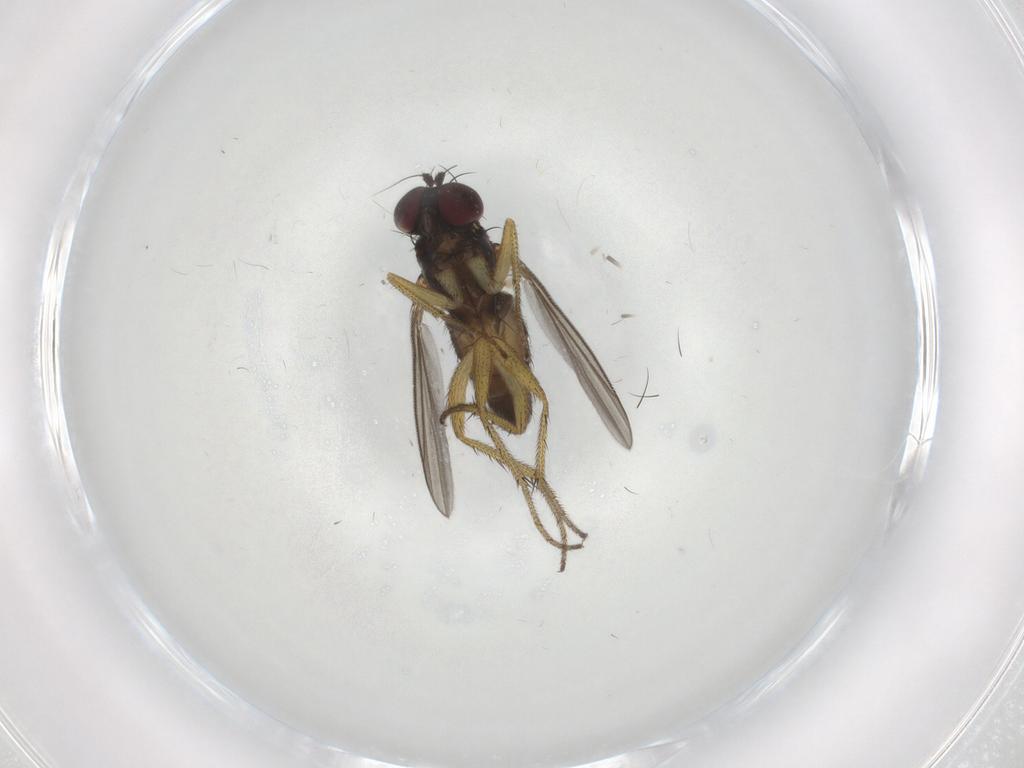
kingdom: Animalia
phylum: Arthropoda
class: Insecta
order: Diptera
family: Dolichopodidae
